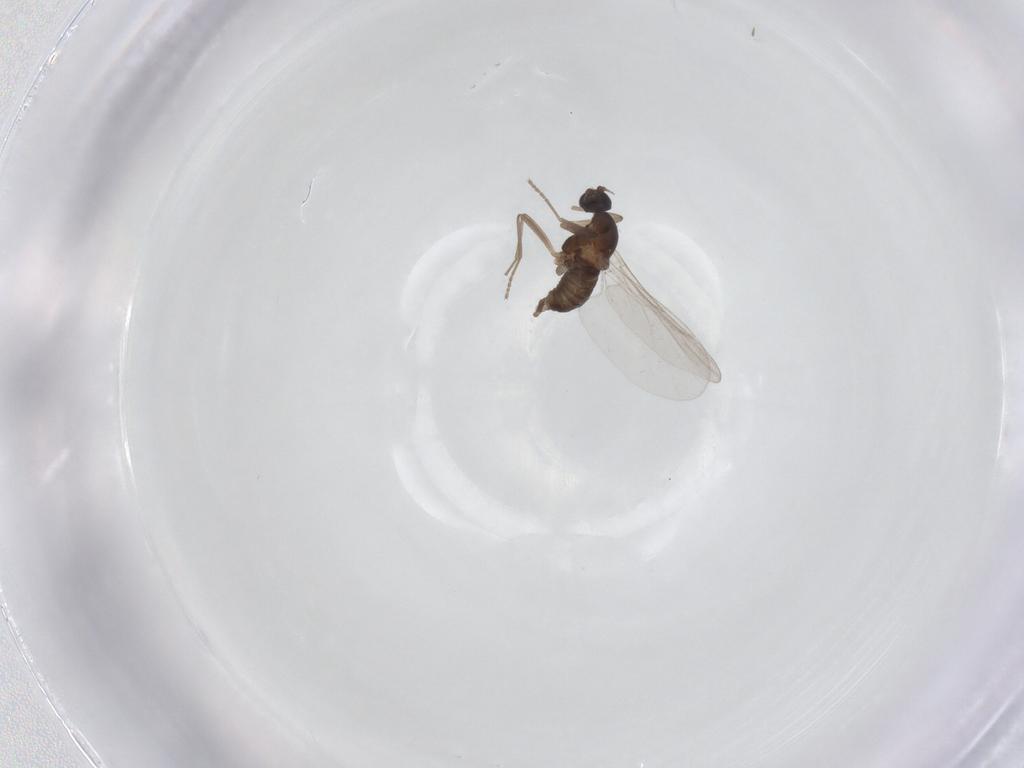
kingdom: Animalia
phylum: Arthropoda
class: Insecta
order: Diptera
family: Cecidomyiidae
